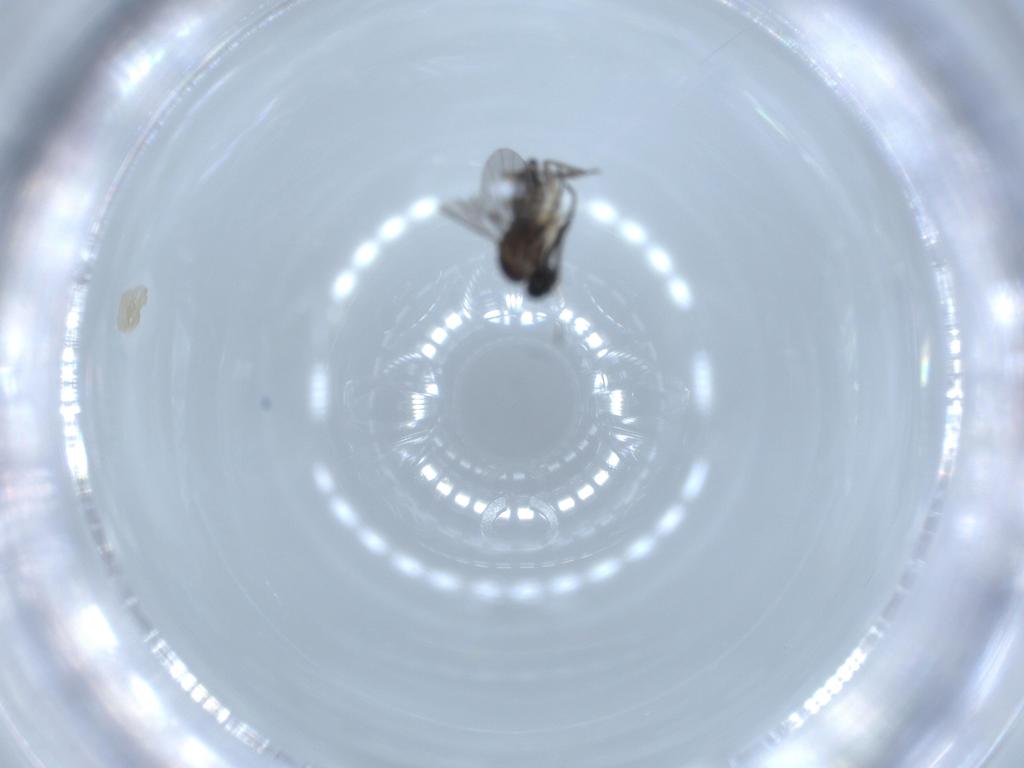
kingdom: Animalia
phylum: Arthropoda
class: Insecta
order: Diptera
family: Sciaridae
